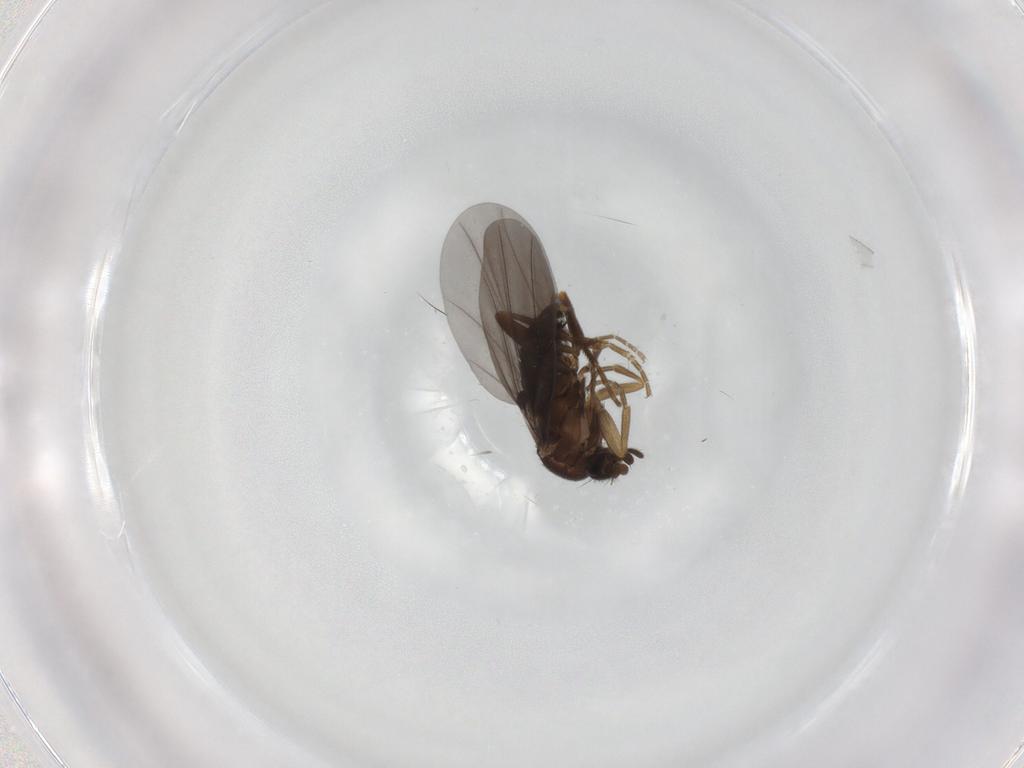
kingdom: Animalia
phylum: Arthropoda
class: Insecta
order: Diptera
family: Phoridae
